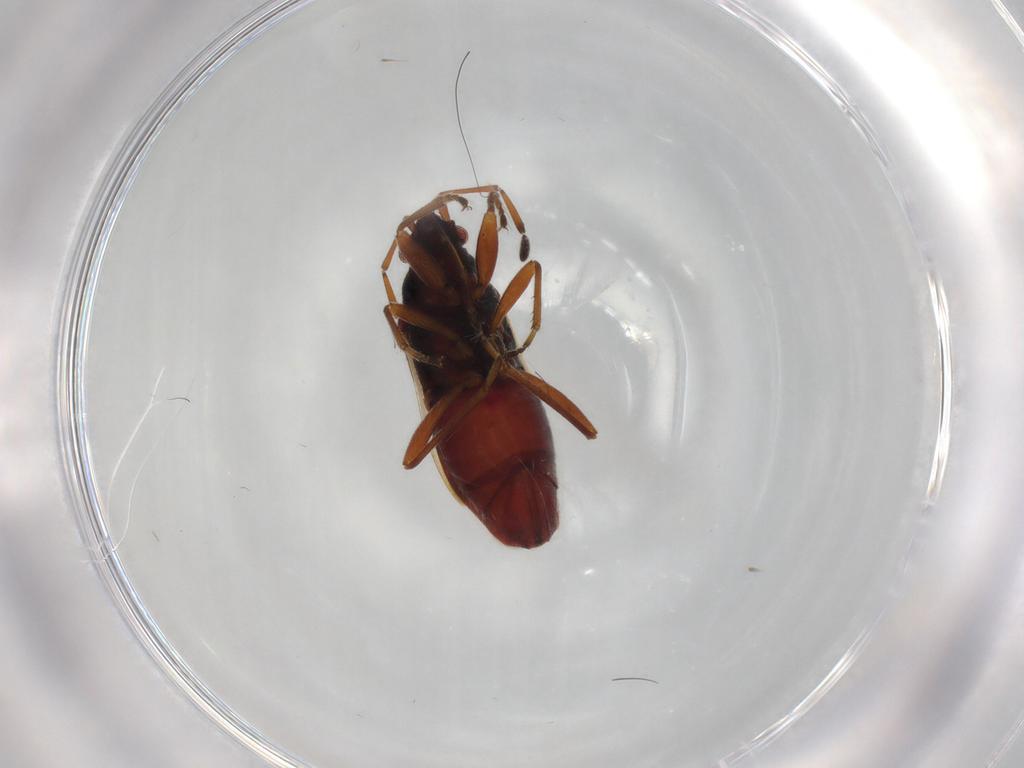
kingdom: Animalia
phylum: Arthropoda
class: Insecta
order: Hemiptera
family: Rhyparochromidae
